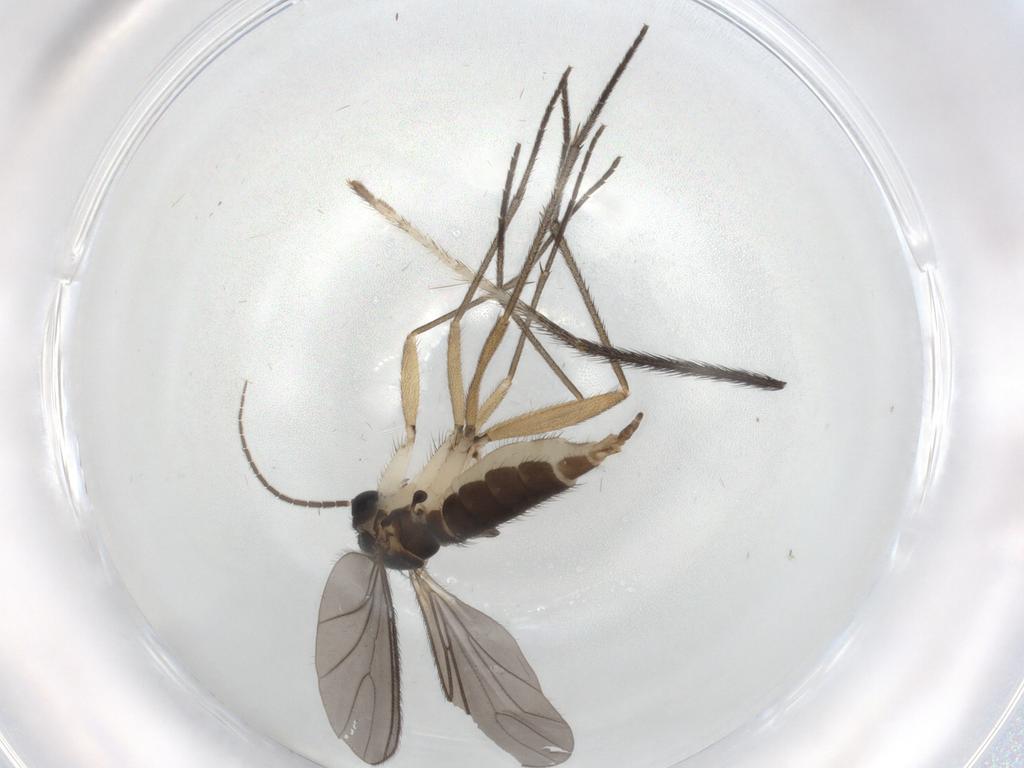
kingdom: Animalia
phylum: Arthropoda
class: Insecta
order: Diptera
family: Sciaridae
